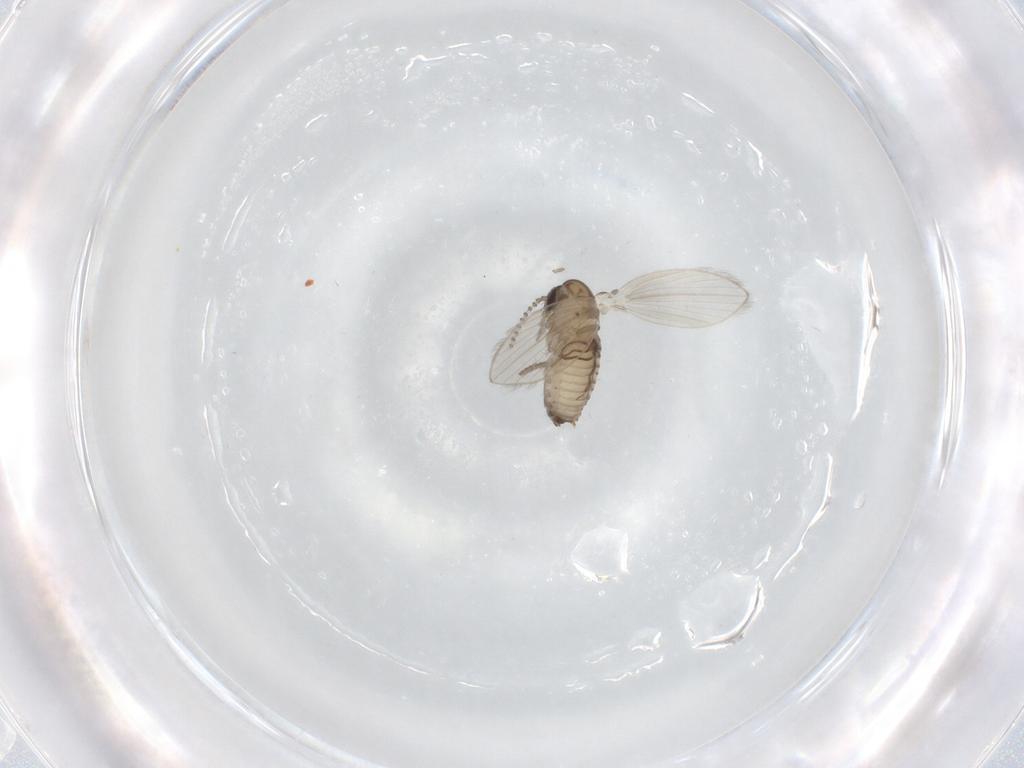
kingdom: Animalia
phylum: Arthropoda
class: Insecta
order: Diptera
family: Psychodidae
